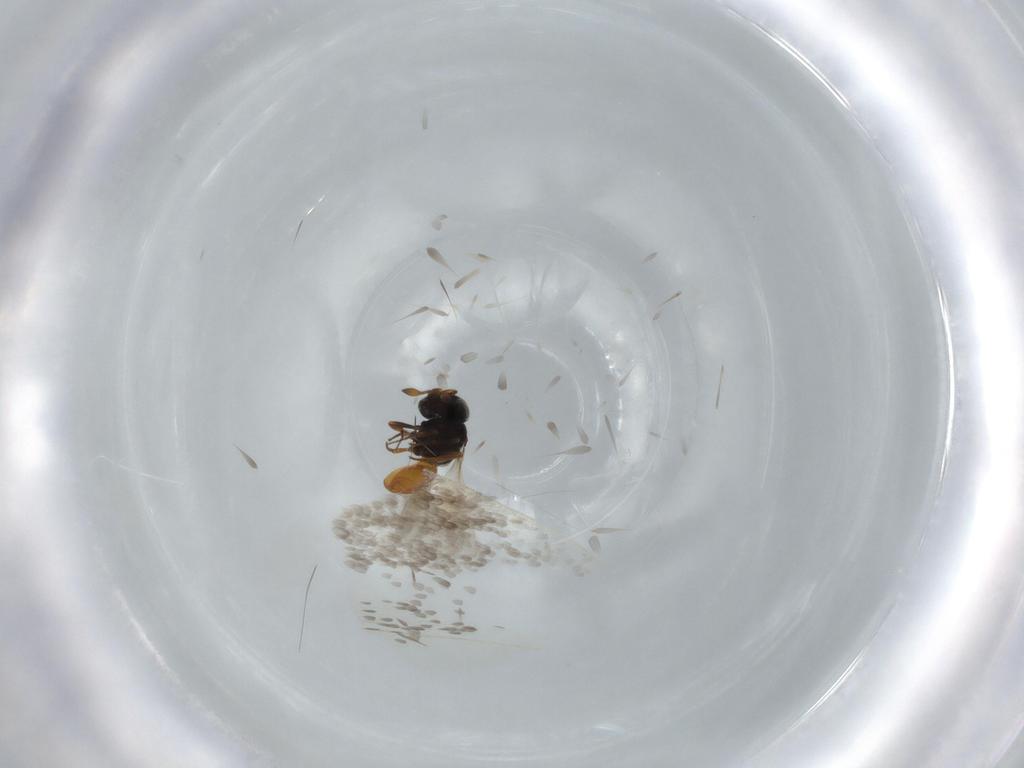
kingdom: Animalia
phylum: Arthropoda
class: Insecta
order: Hymenoptera
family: Scelionidae
